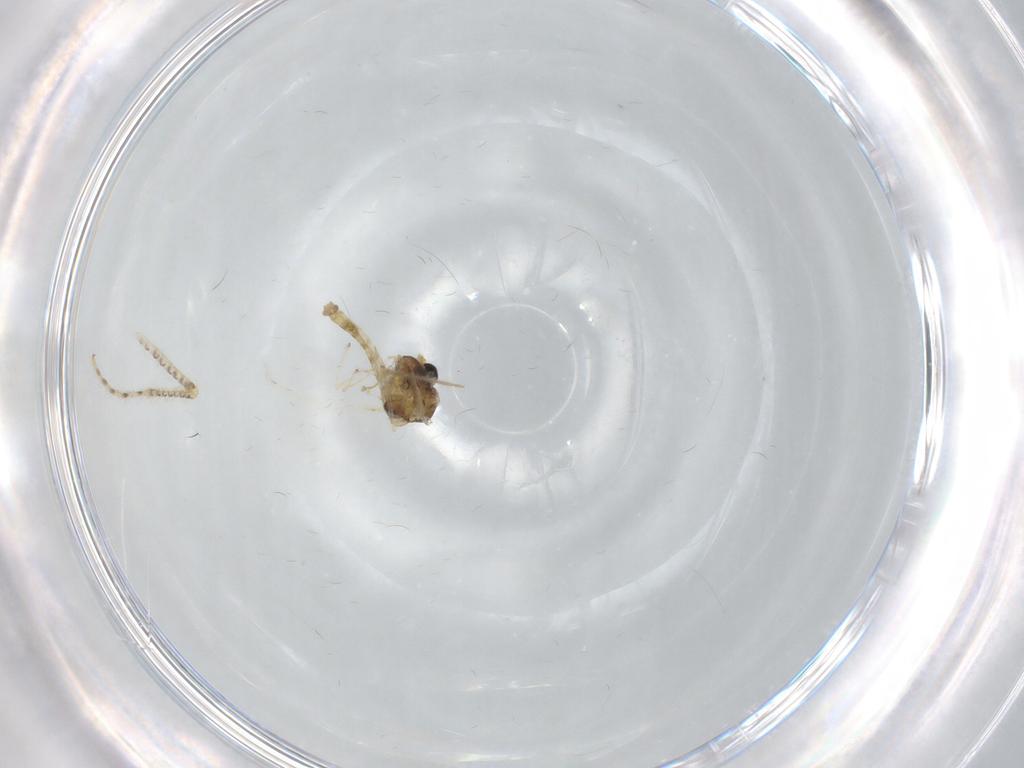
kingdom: Animalia
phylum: Arthropoda
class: Insecta
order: Diptera
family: Chironomidae
